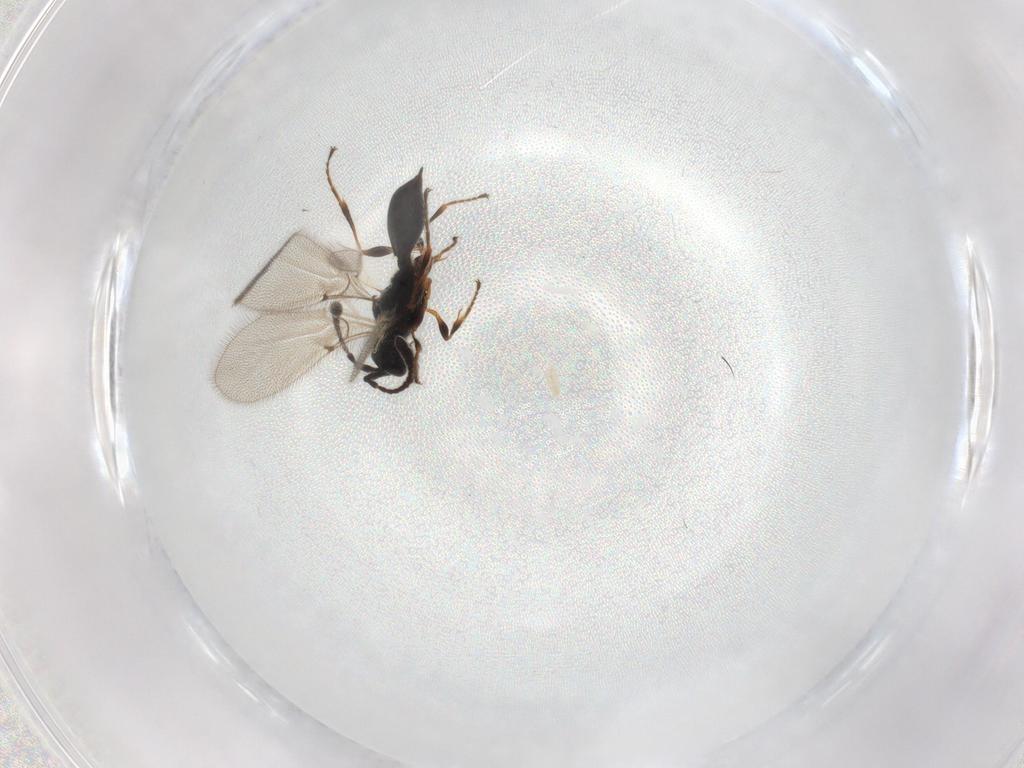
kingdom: Animalia
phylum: Arthropoda
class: Insecta
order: Hymenoptera
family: Diapriidae
